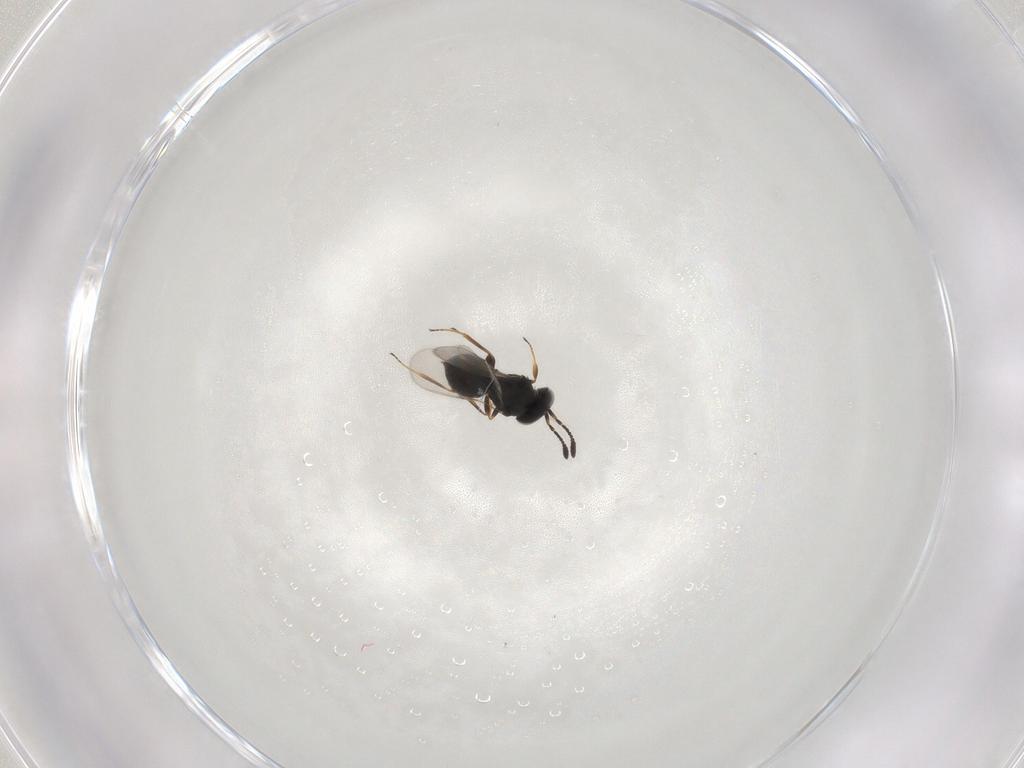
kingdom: Animalia
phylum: Arthropoda
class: Insecta
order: Hymenoptera
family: Scelionidae
